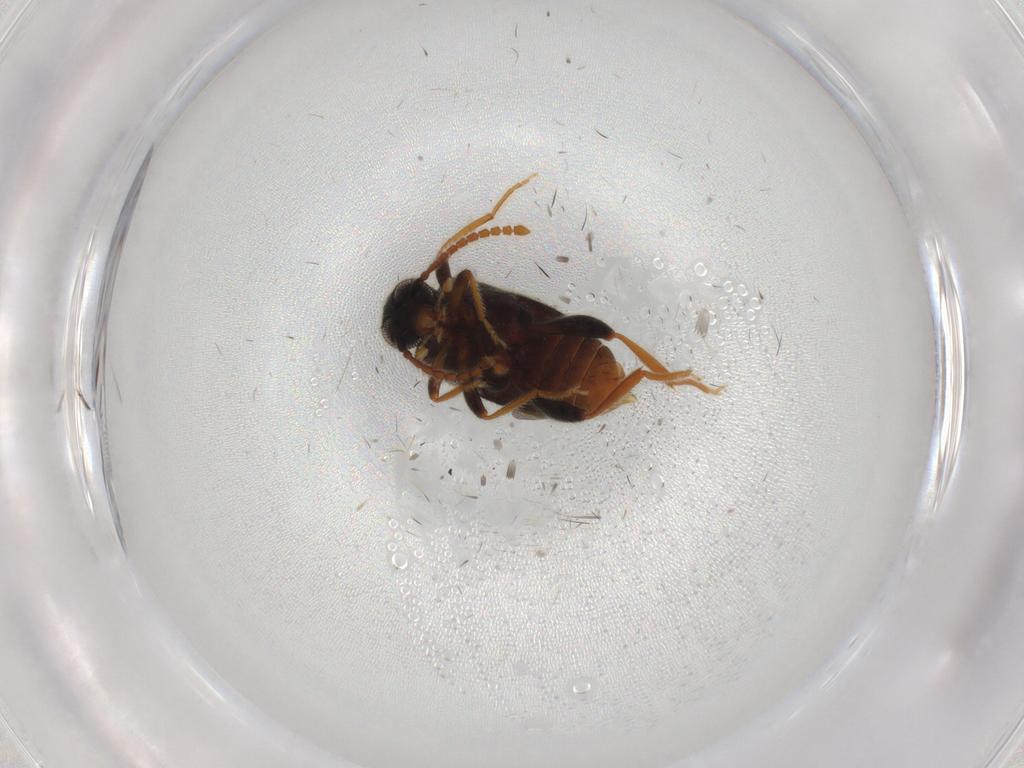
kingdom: Animalia
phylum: Arthropoda
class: Insecta
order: Coleoptera
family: Aderidae
